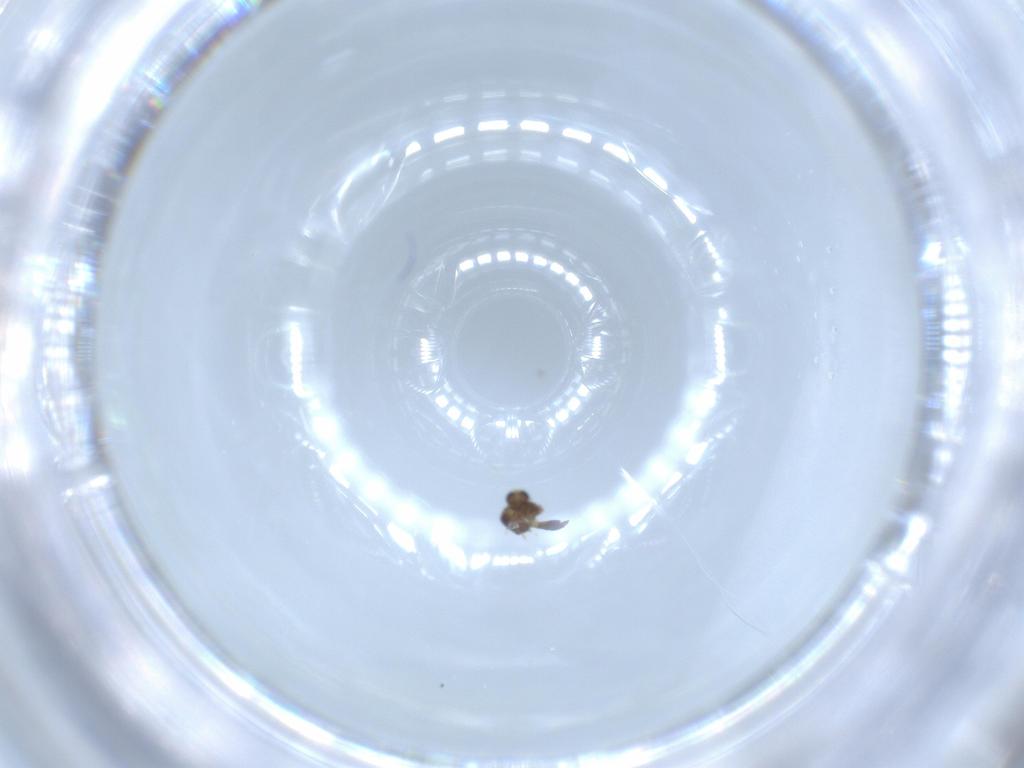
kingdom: Animalia
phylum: Arthropoda
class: Insecta
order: Diptera
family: Chironomidae
